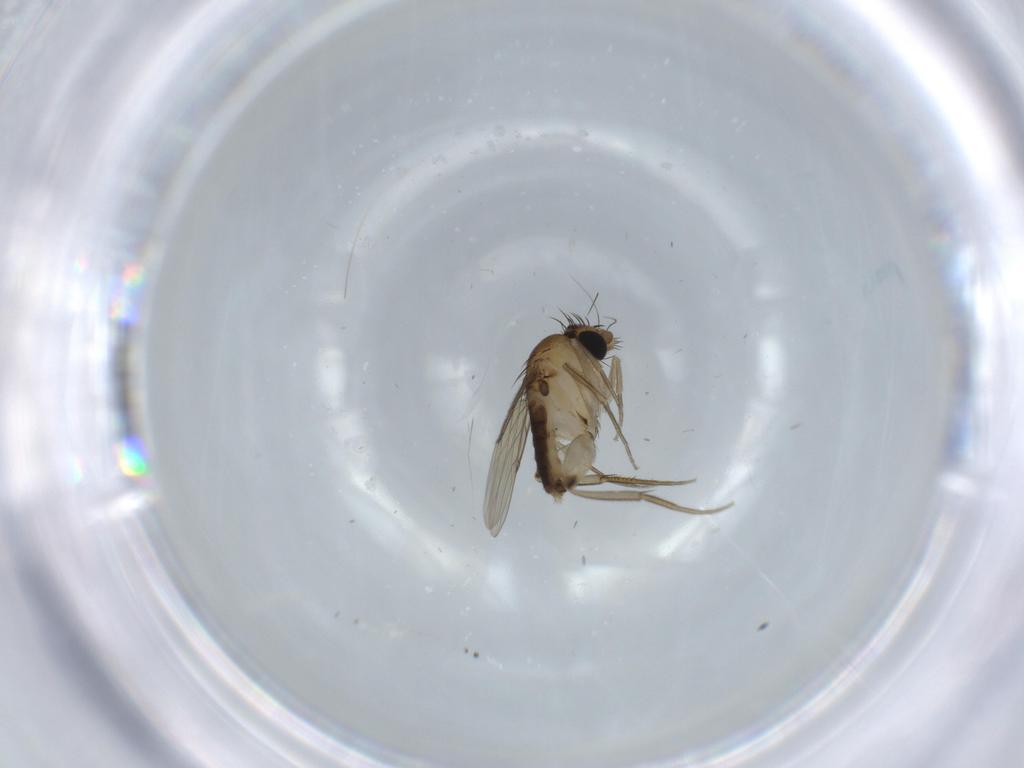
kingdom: Animalia
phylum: Arthropoda
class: Insecta
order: Diptera
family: Phoridae
